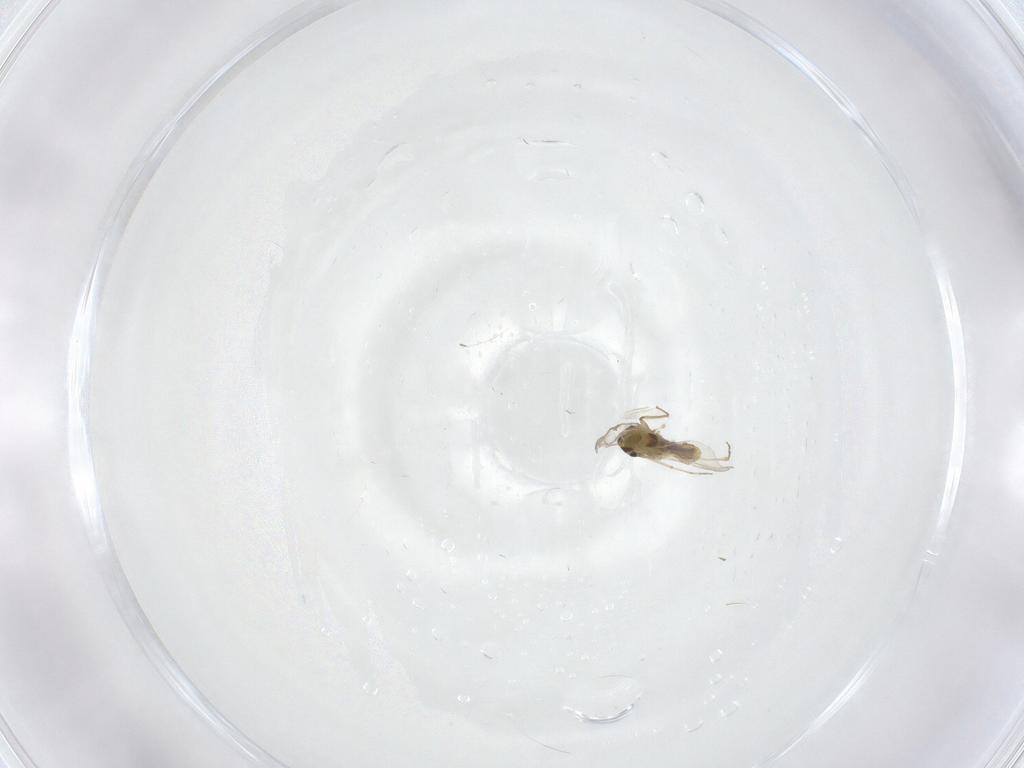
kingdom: Animalia
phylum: Arthropoda
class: Insecta
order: Diptera
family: Chironomidae
